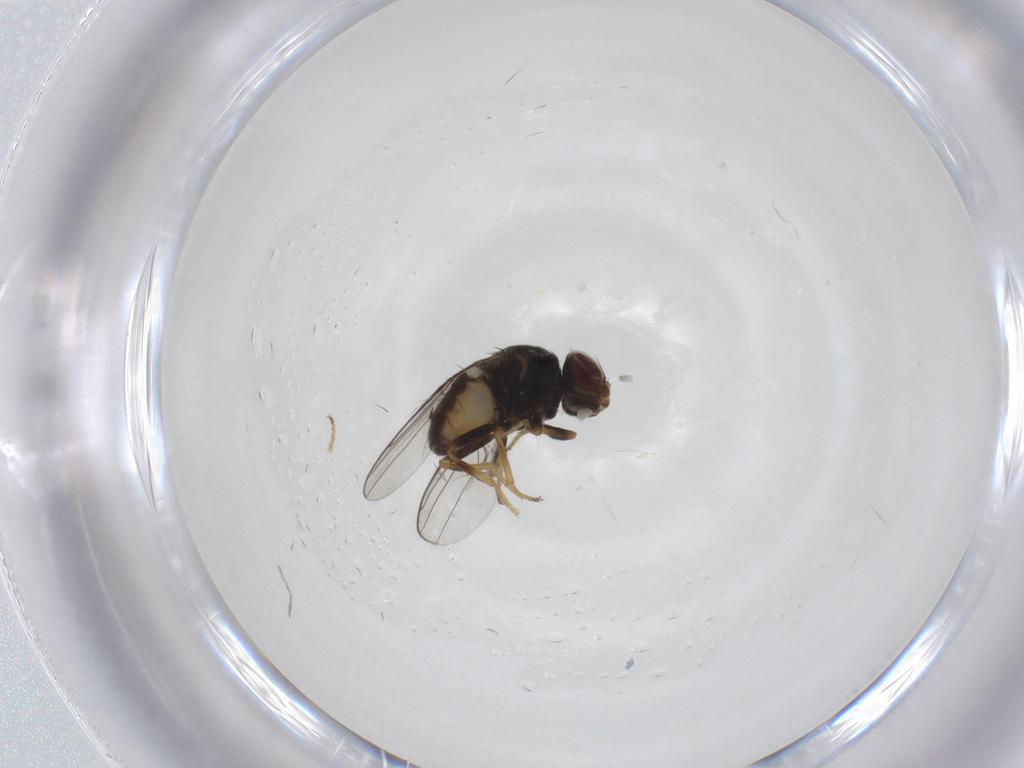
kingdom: Animalia
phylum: Arthropoda
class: Insecta
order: Diptera
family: Chloropidae
